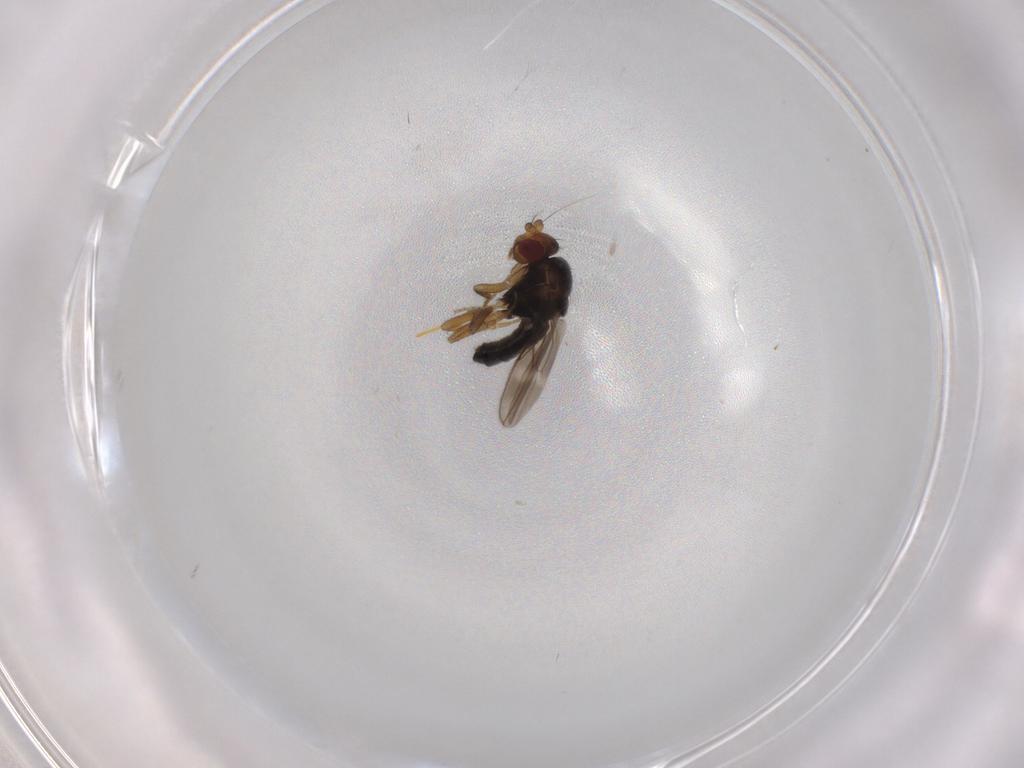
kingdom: Animalia
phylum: Arthropoda
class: Insecta
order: Diptera
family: Sphaeroceridae
